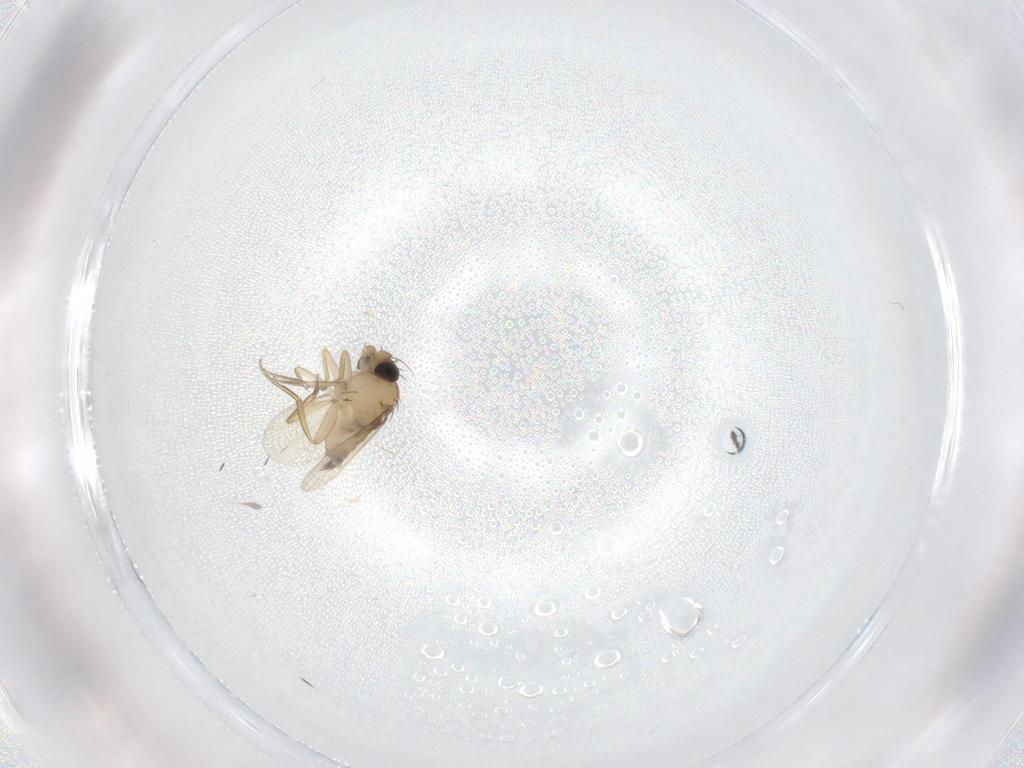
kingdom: Animalia
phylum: Arthropoda
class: Insecta
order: Diptera
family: Phoridae
